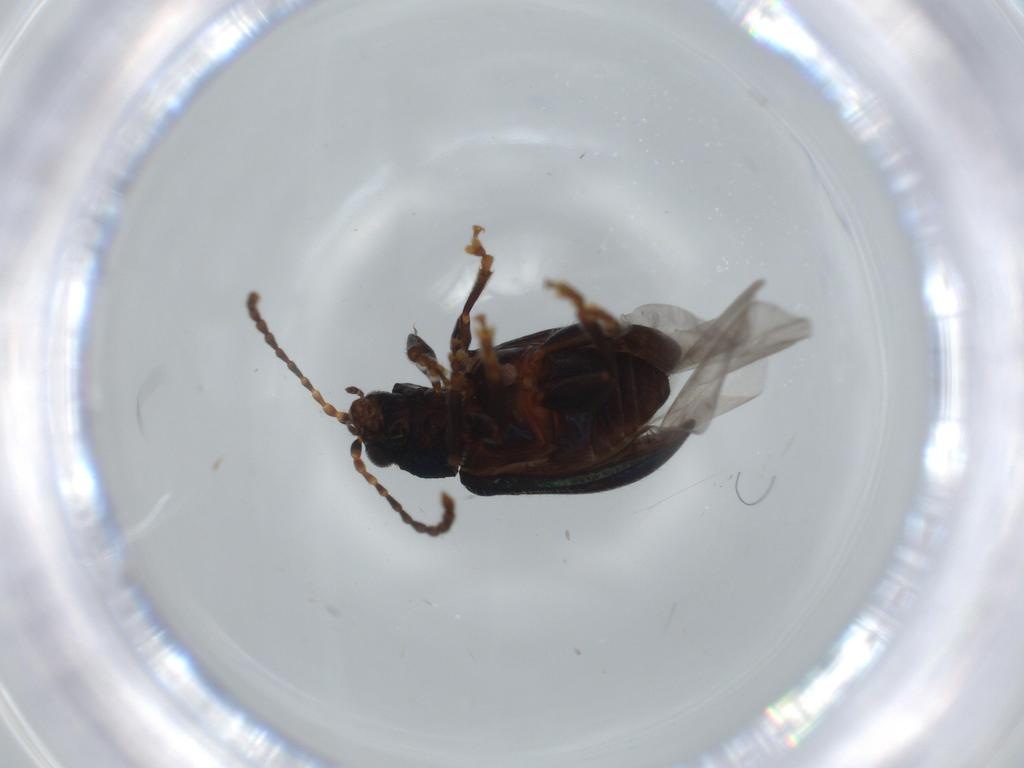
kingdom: Animalia
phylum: Arthropoda
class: Insecta
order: Coleoptera
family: Chrysomelidae
